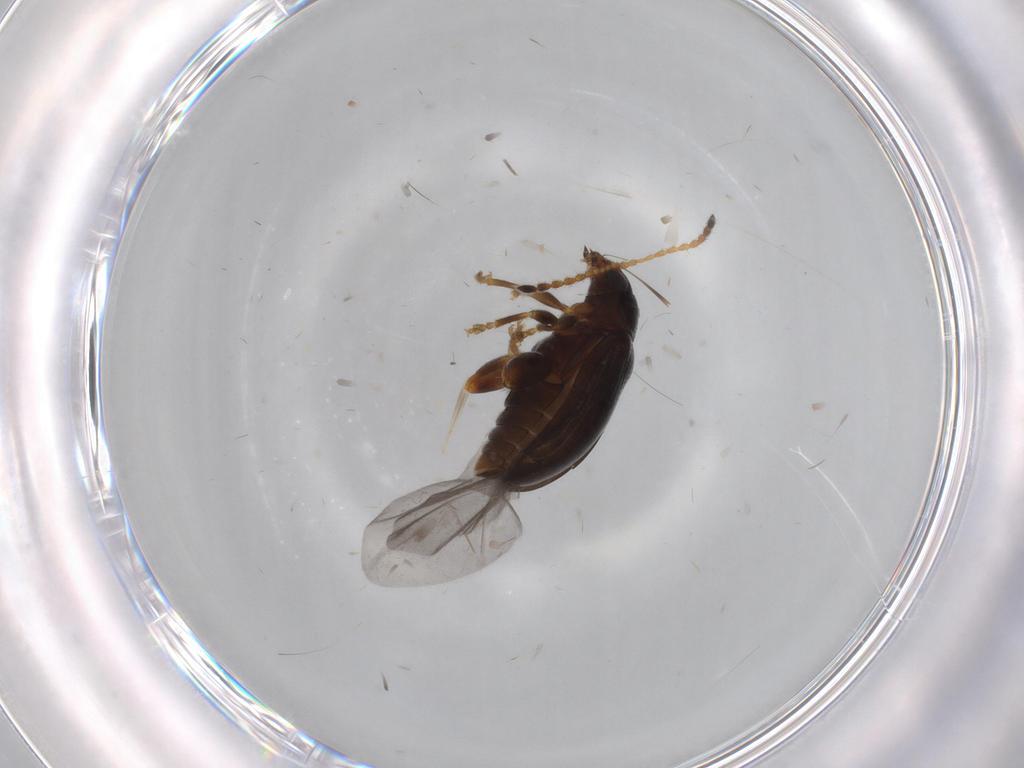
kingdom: Animalia
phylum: Arthropoda
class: Insecta
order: Coleoptera
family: Chrysomelidae
